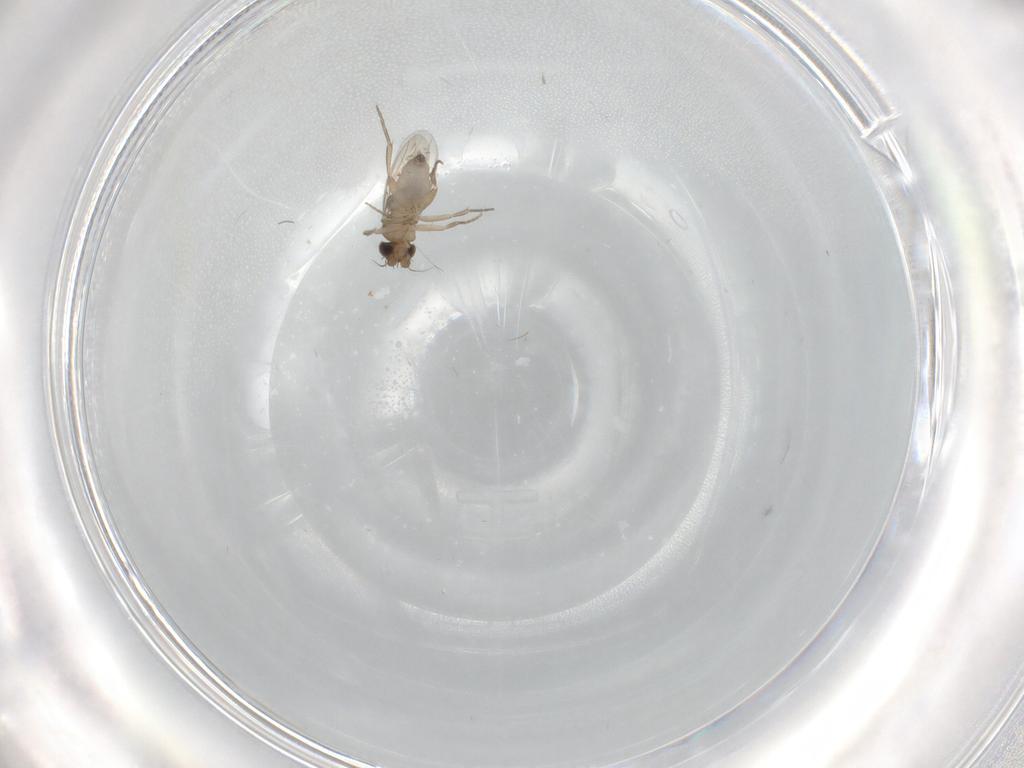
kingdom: Animalia
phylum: Arthropoda
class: Insecta
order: Diptera
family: Phoridae
